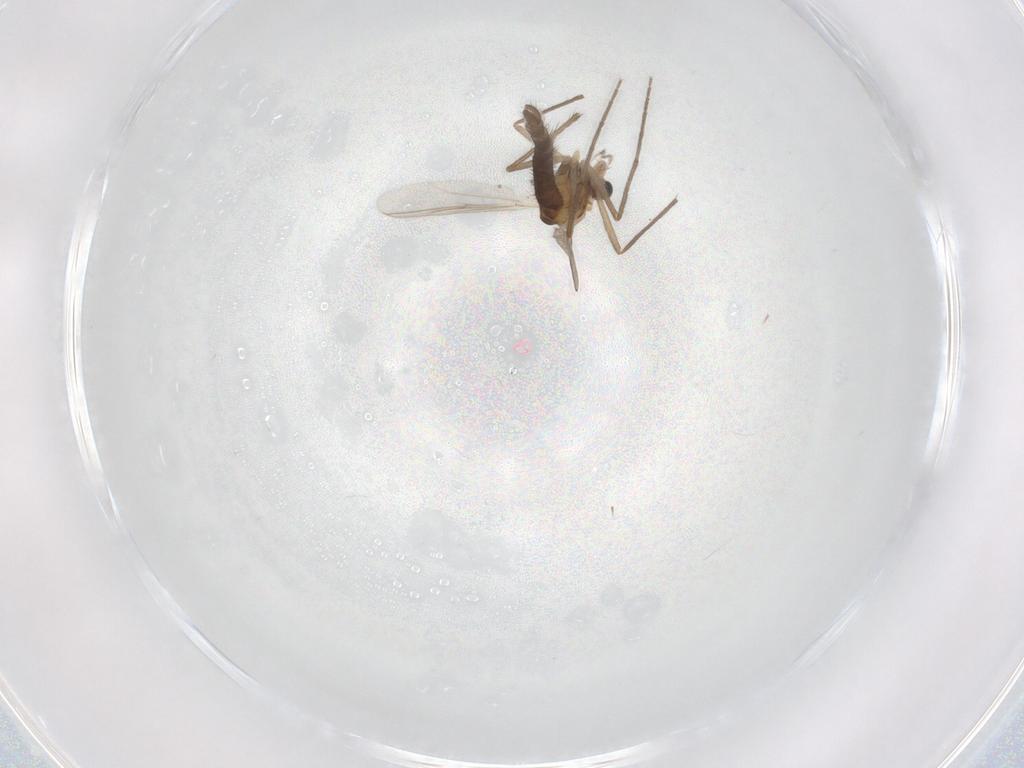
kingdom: Animalia
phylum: Arthropoda
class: Insecta
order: Diptera
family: Chironomidae
